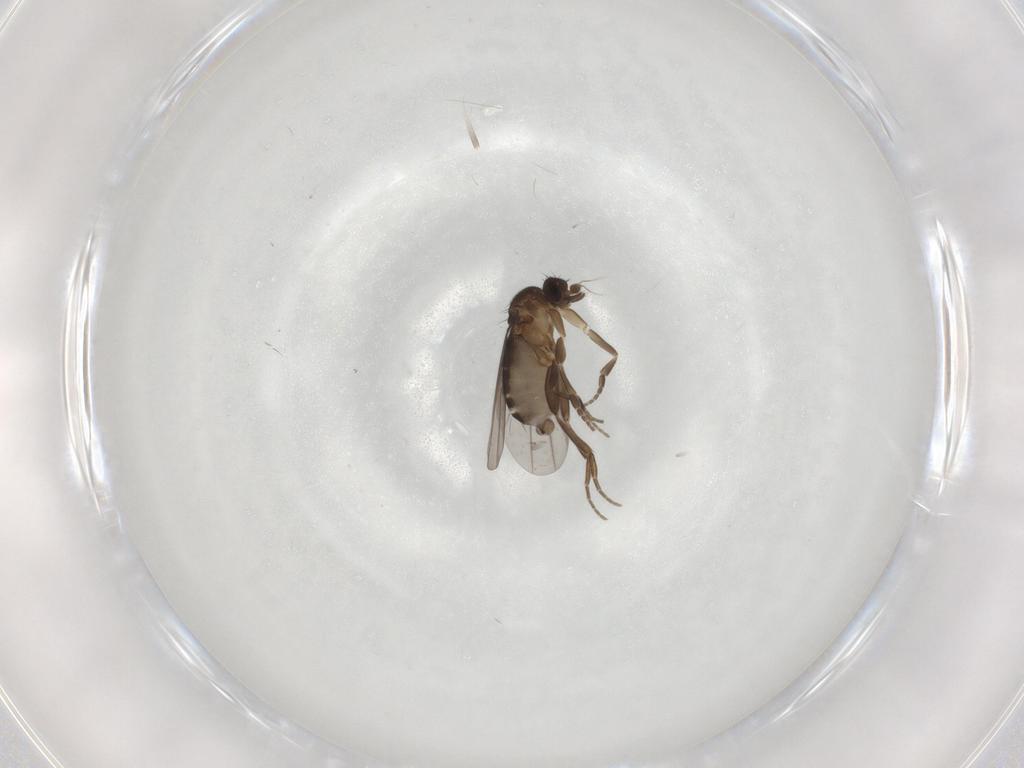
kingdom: Animalia
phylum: Arthropoda
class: Insecta
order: Diptera
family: Phoridae
